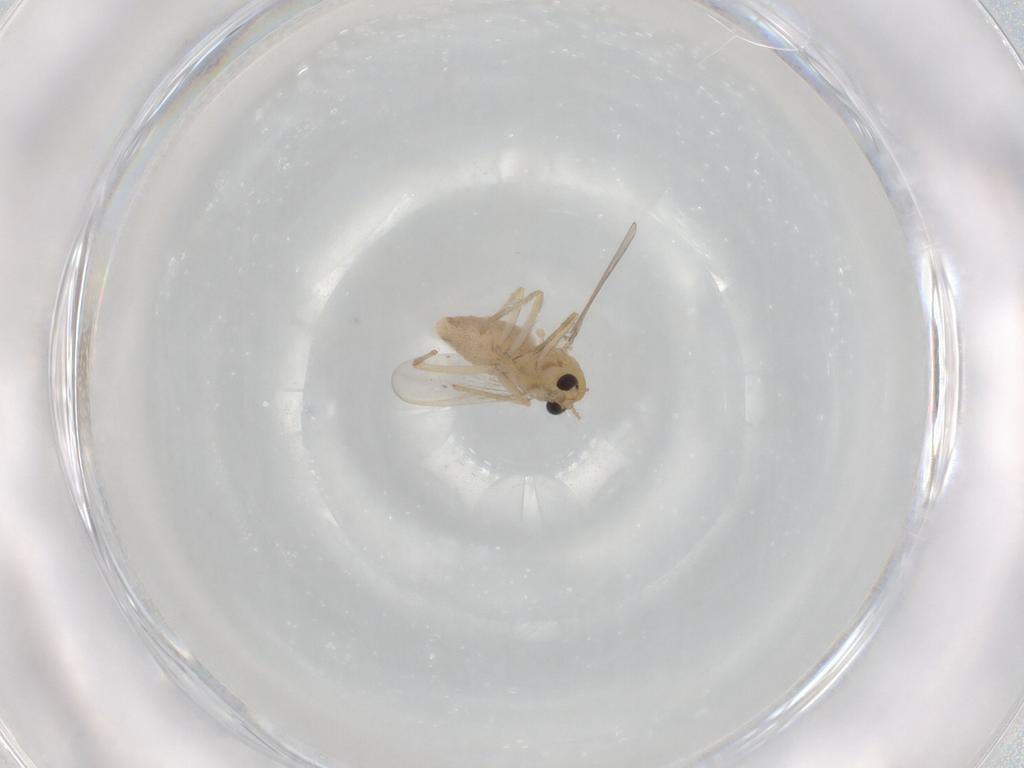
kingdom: Animalia
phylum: Arthropoda
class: Insecta
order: Diptera
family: Chironomidae
